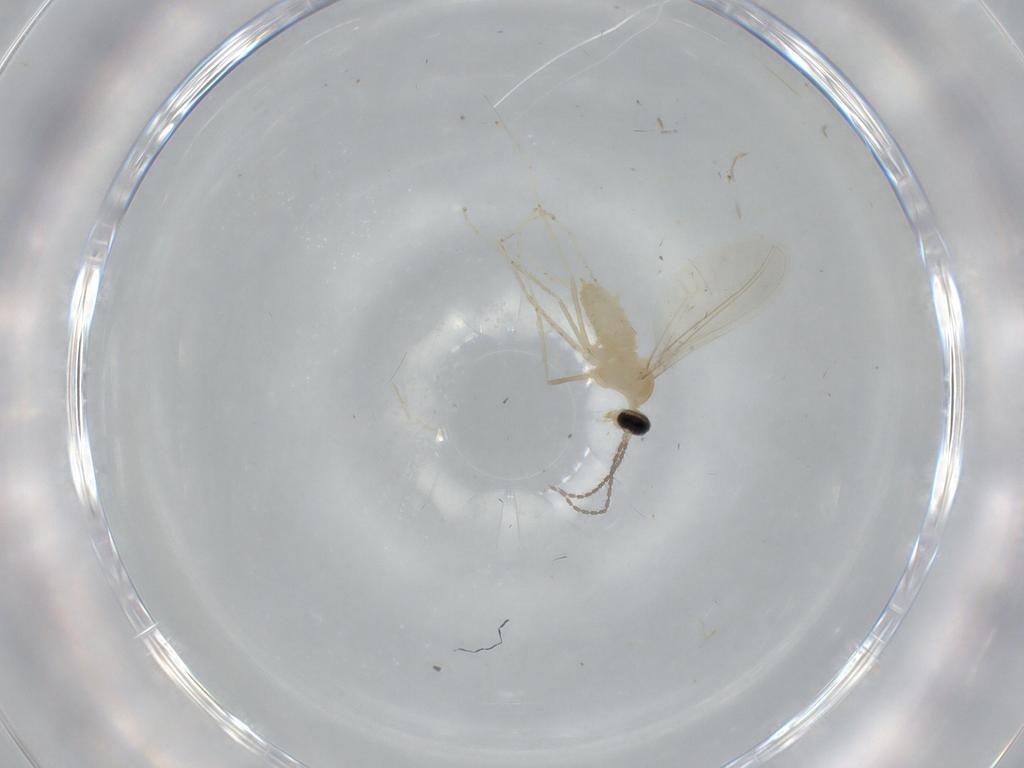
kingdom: Animalia
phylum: Arthropoda
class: Insecta
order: Diptera
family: Cecidomyiidae
